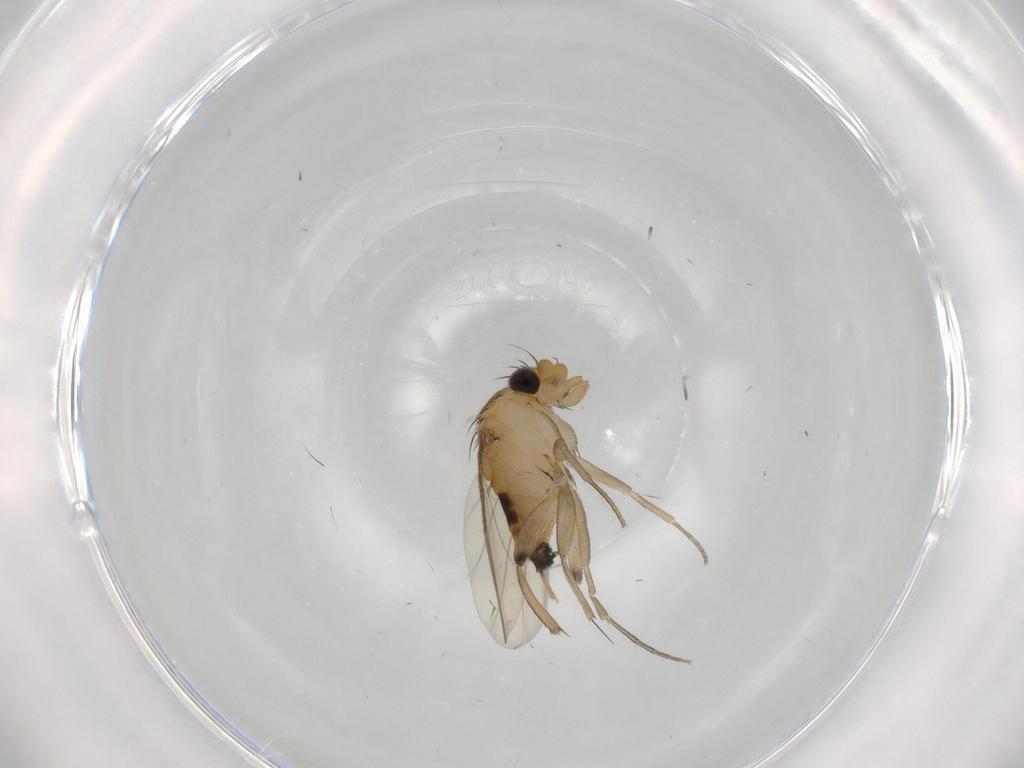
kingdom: Animalia
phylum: Arthropoda
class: Insecta
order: Diptera
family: Phoridae
